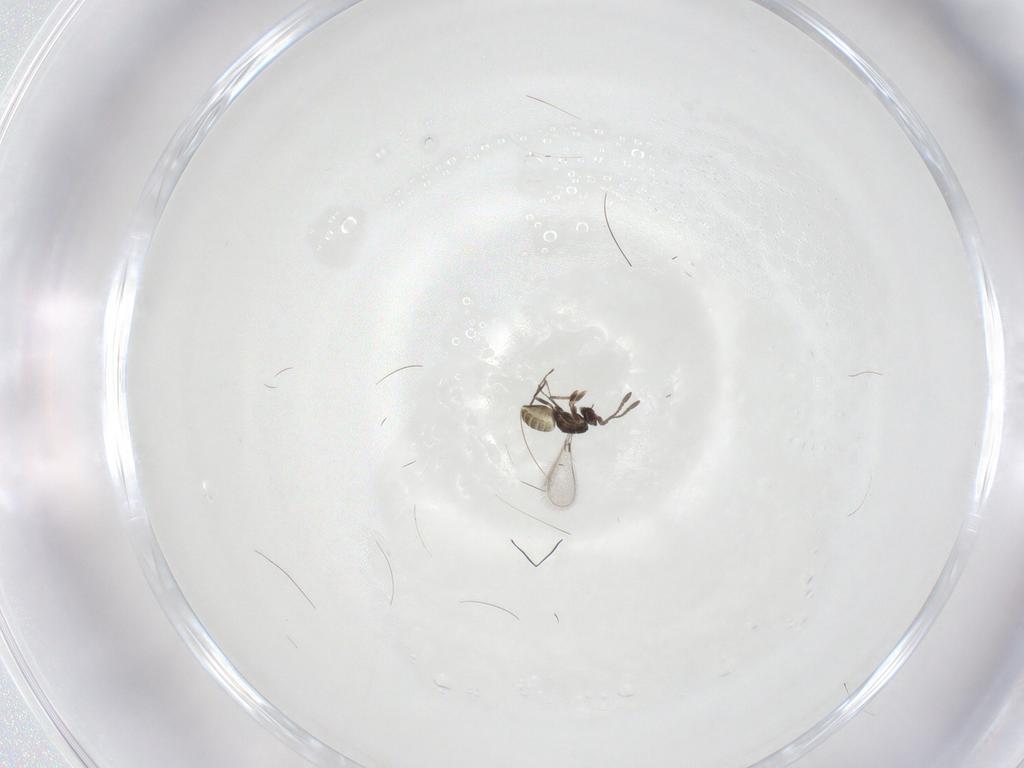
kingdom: Animalia
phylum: Arthropoda
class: Insecta
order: Hymenoptera
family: Mymaridae
